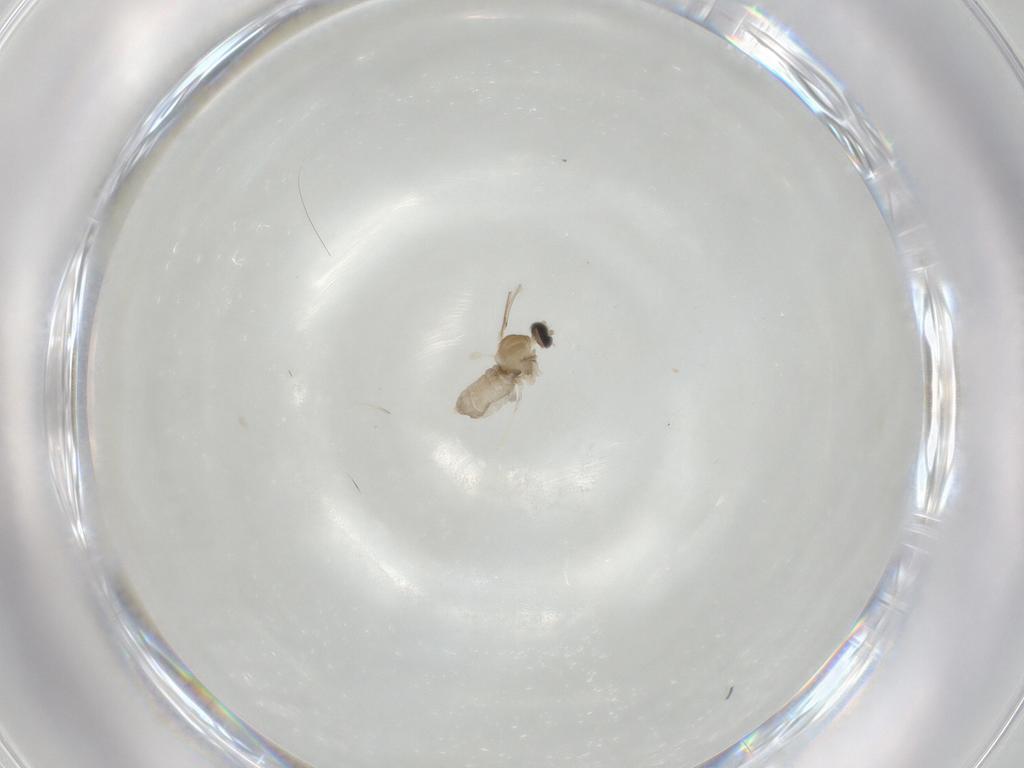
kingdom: Animalia
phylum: Arthropoda
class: Insecta
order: Diptera
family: Cecidomyiidae
